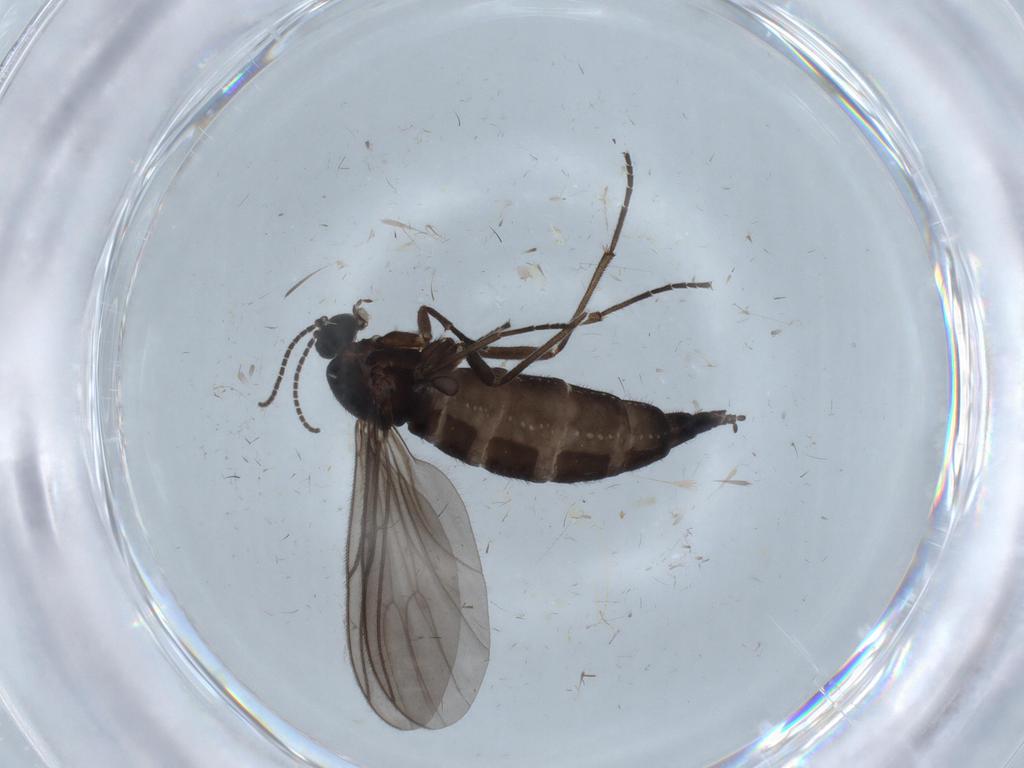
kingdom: Animalia
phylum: Arthropoda
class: Insecta
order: Diptera
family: Sciaridae
